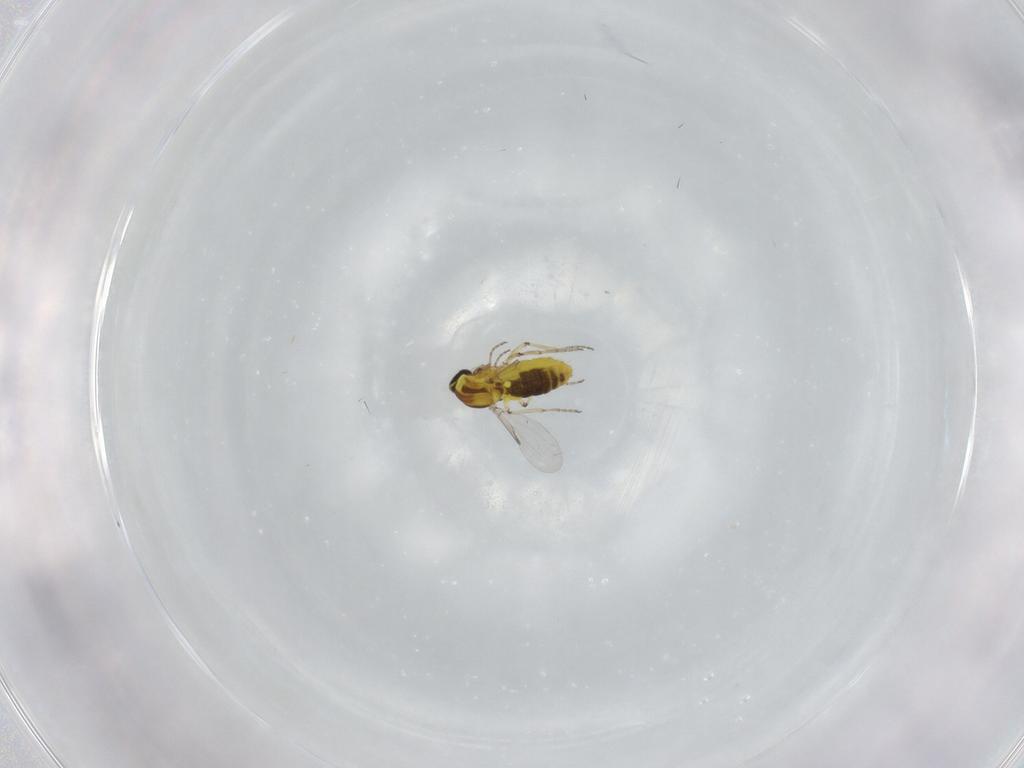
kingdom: Animalia
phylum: Arthropoda
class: Insecta
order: Diptera
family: Ceratopogonidae
